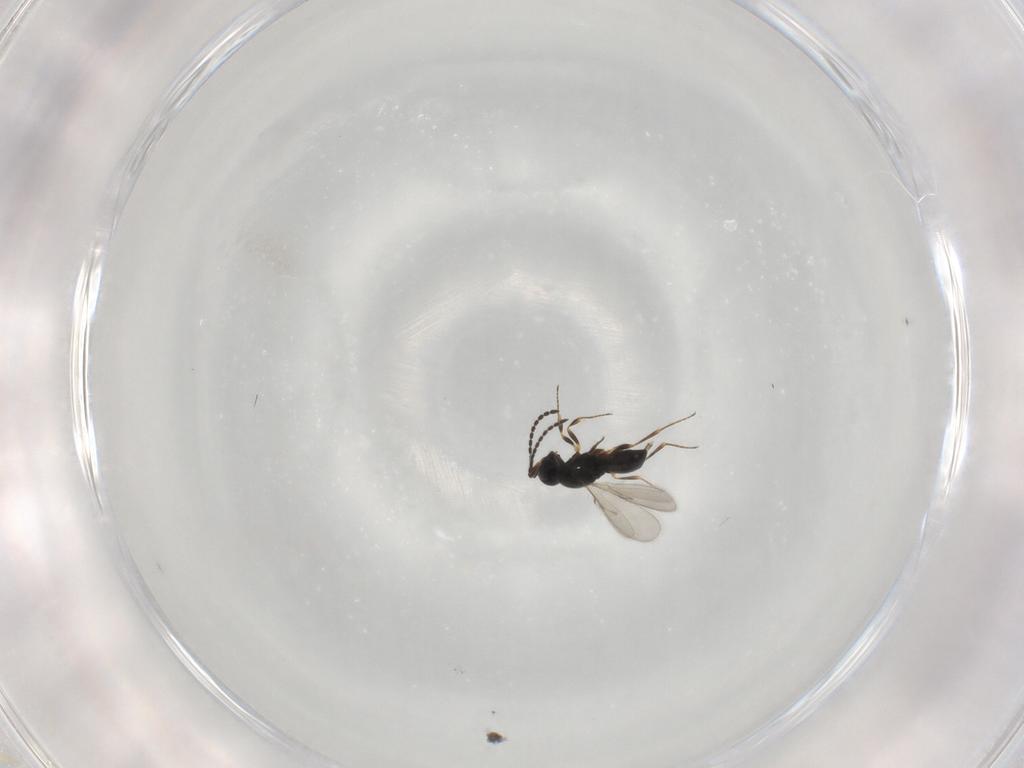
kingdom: Animalia
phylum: Arthropoda
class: Insecta
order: Hymenoptera
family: Scelionidae
